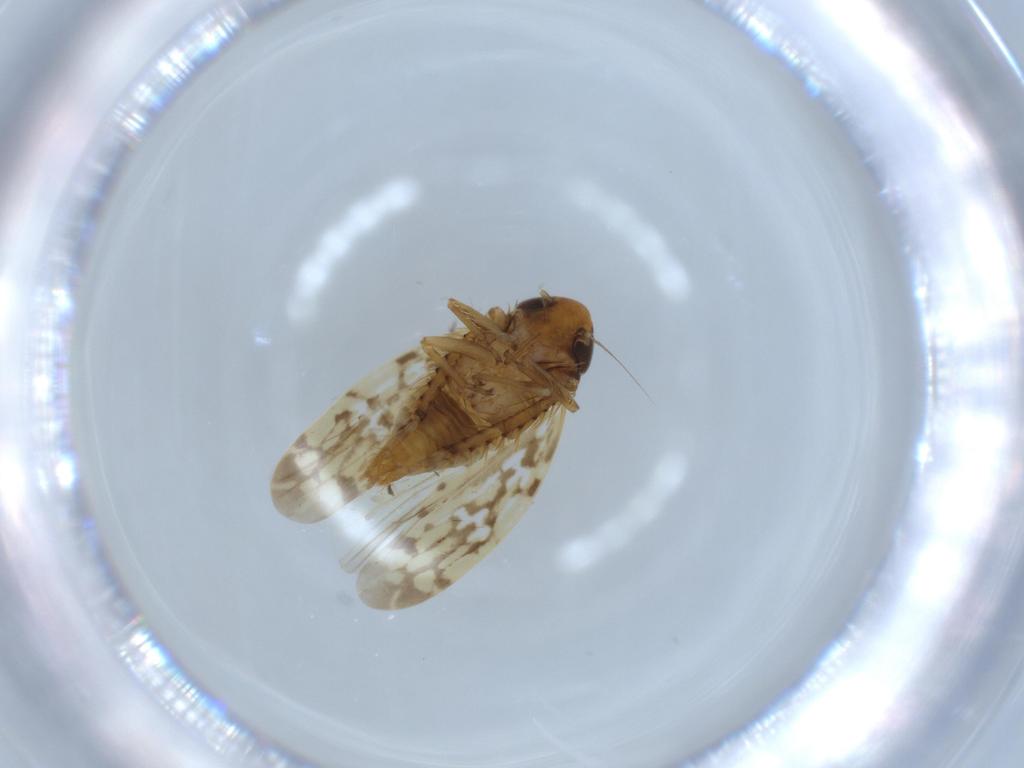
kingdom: Animalia
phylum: Arthropoda
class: Insecta
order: Hemiptera
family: Cicadellidae
